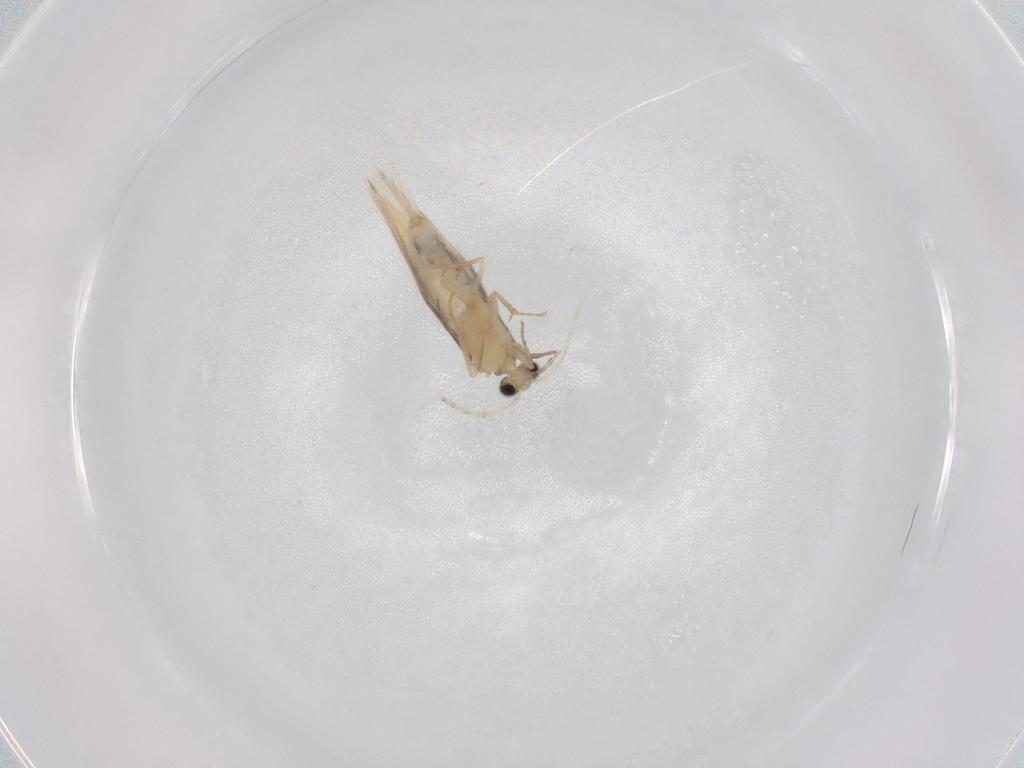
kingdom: Animalia
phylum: Arthropoda
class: Insecta
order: Trichoptera
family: Hydroptilidae
